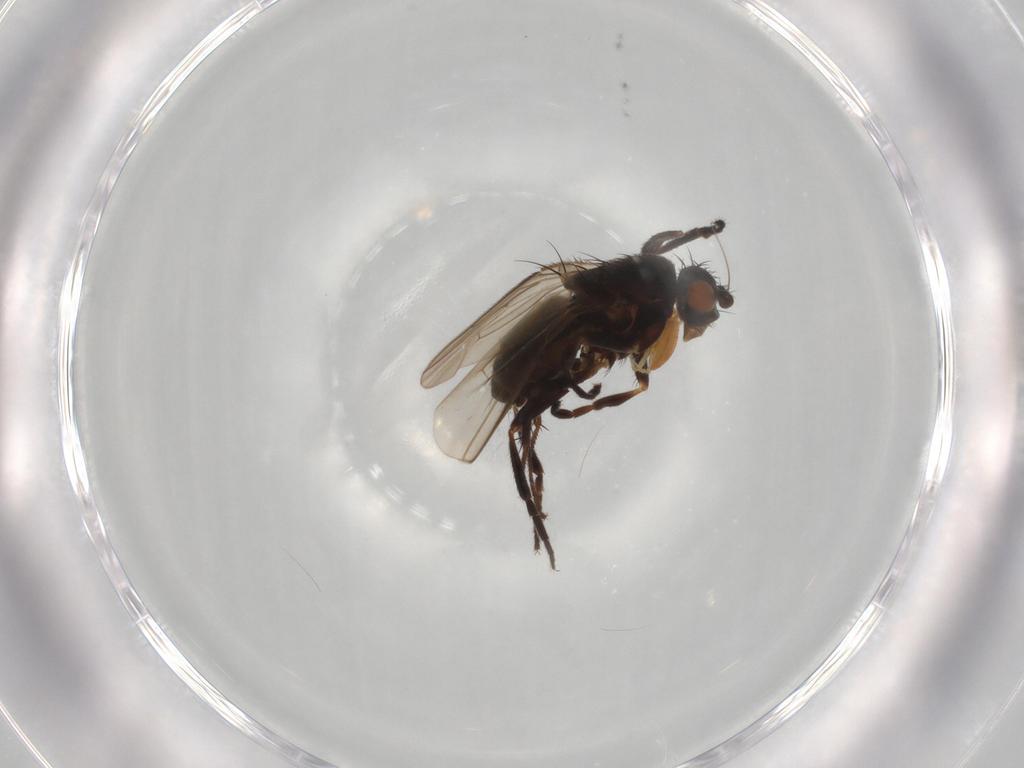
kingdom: Animalia
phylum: Arthropoda
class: Insecta
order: Diptera
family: Sphaeroceridae
